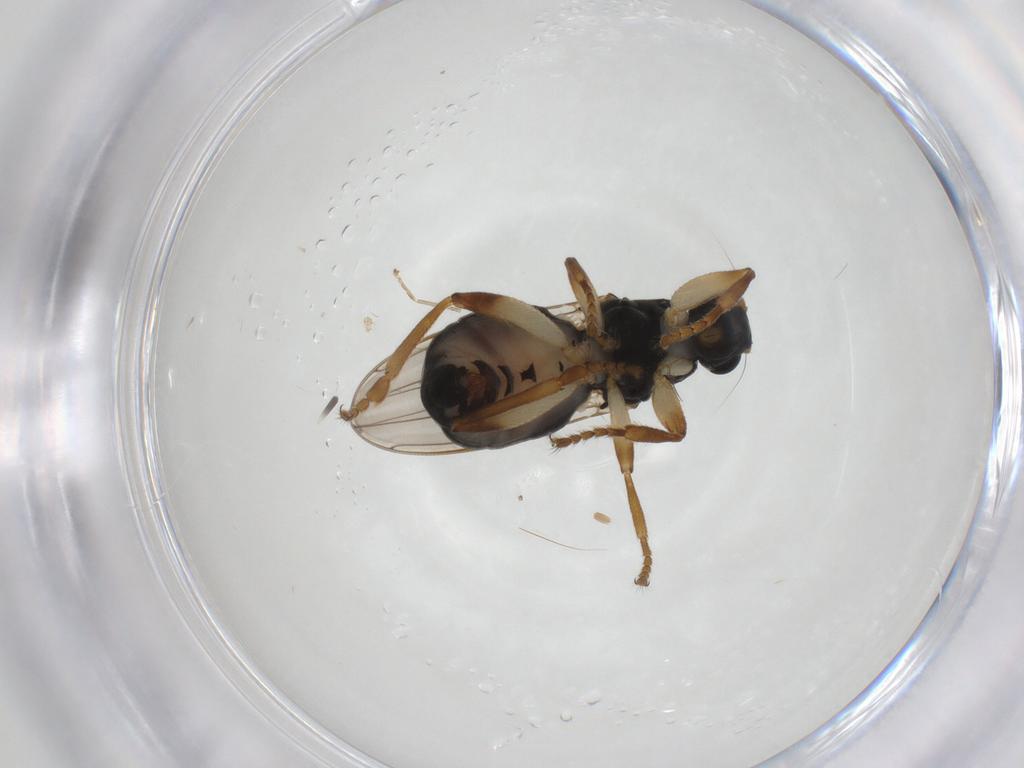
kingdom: Animalia
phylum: Arthropoda
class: Insecta
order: Diptera
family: Sphaeroceridae
